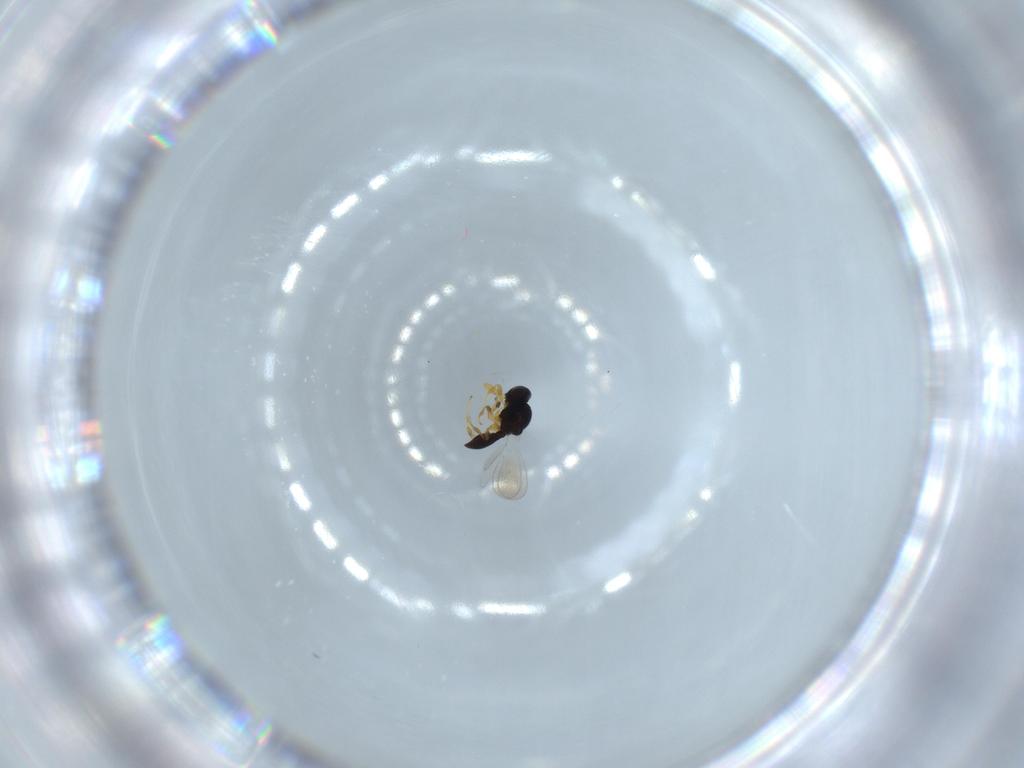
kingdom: Animalia
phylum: Arthropoda
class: Insecta
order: Hymenoptera
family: Platygastridae
